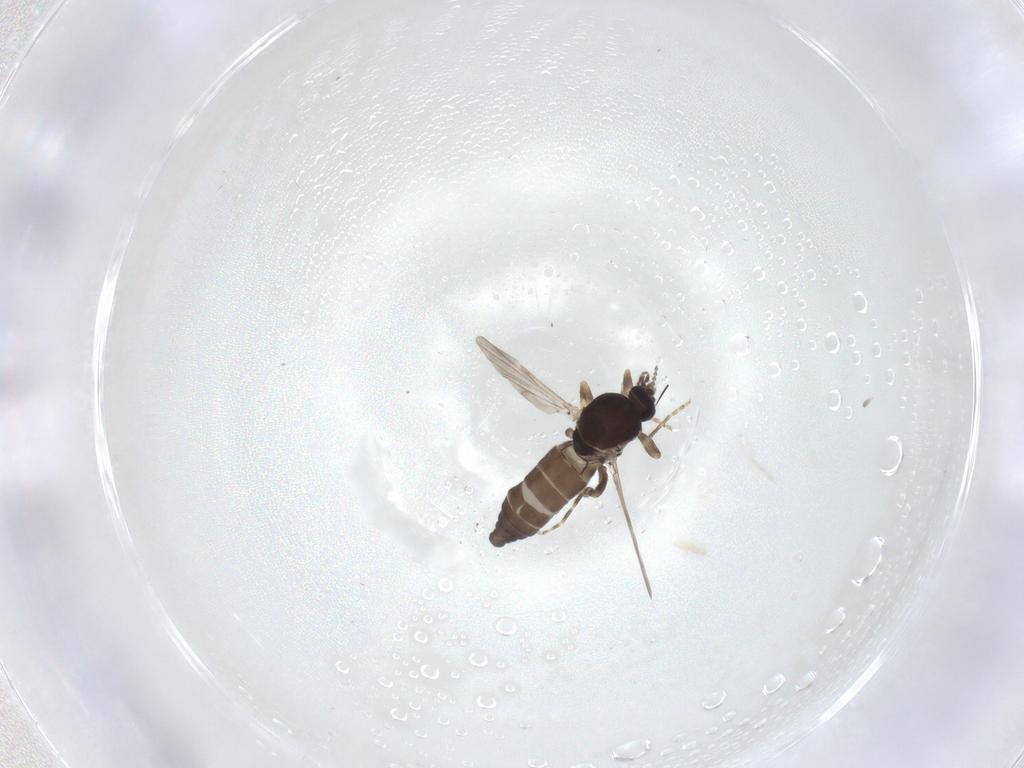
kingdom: Animalia
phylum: Arthropoda
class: Insecta
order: Diptera
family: Ceratopogonidae
